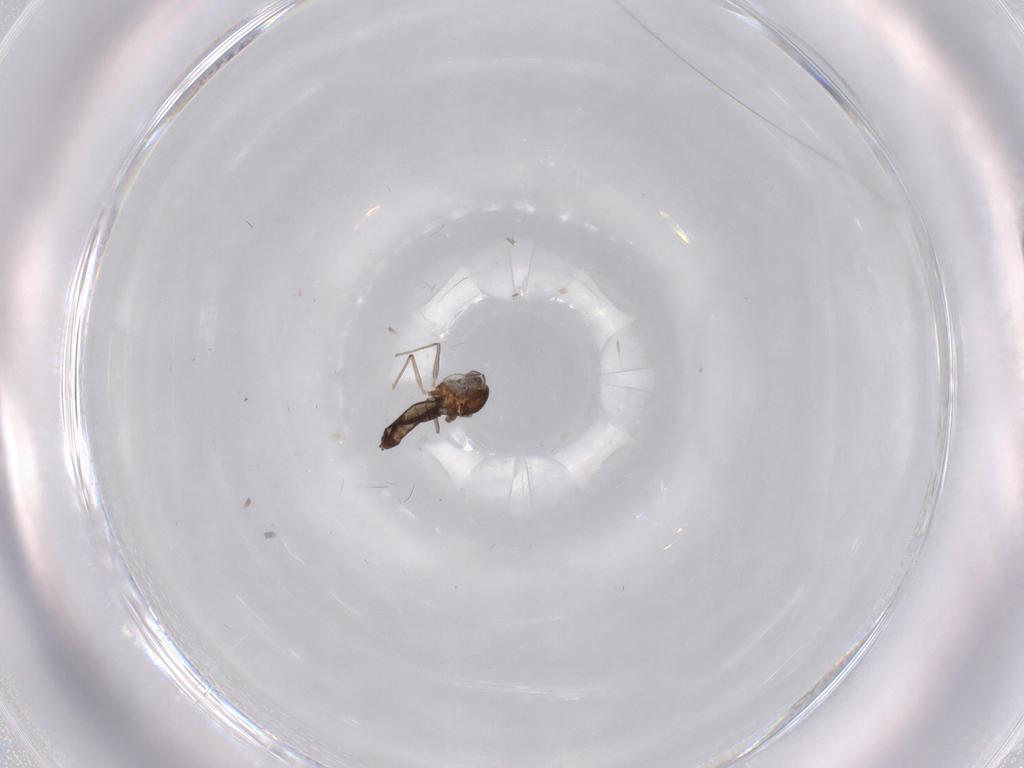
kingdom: Animalia
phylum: Arthropoda
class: Insecta
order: Diptera
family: Chironomidae
